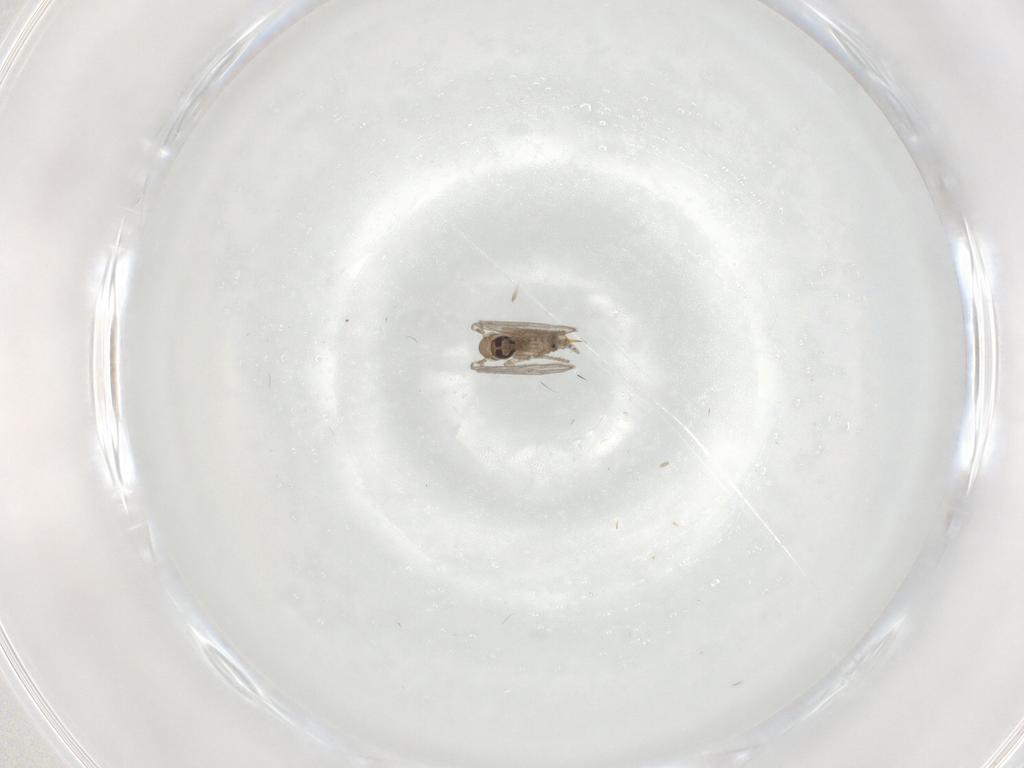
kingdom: Animalia
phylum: Arthropoda
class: Insecta
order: Diptera
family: Psychodidae
